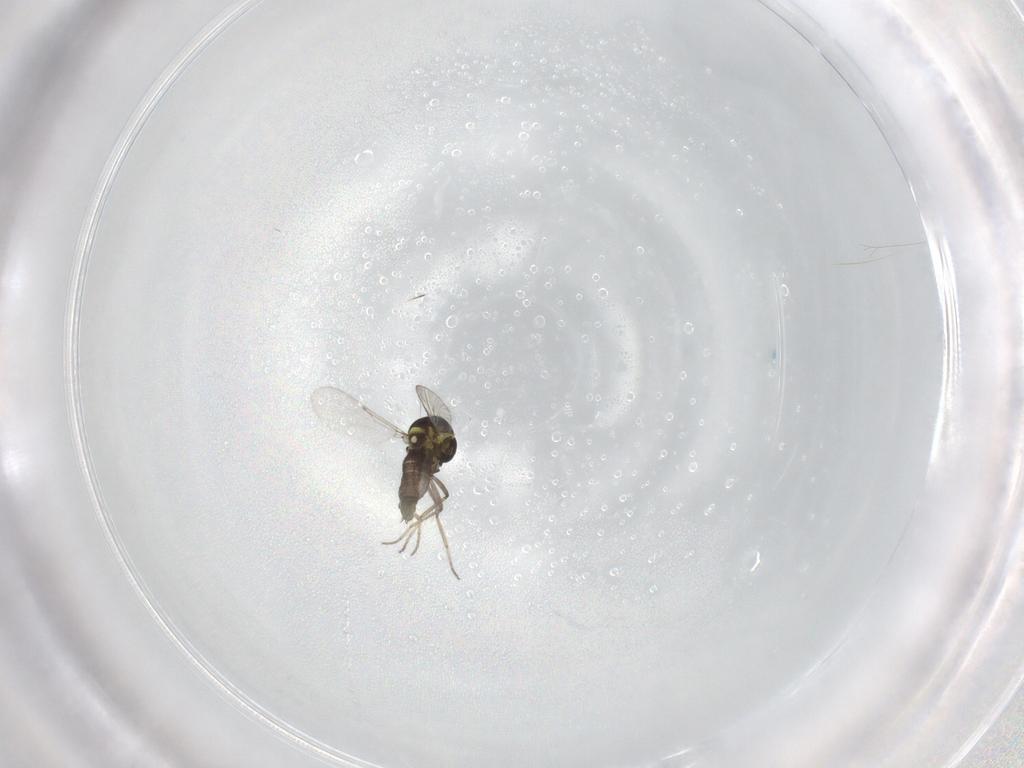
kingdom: Animalia
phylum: Arthropoda
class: Insecta
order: Diptera
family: Ceratopogonidae
